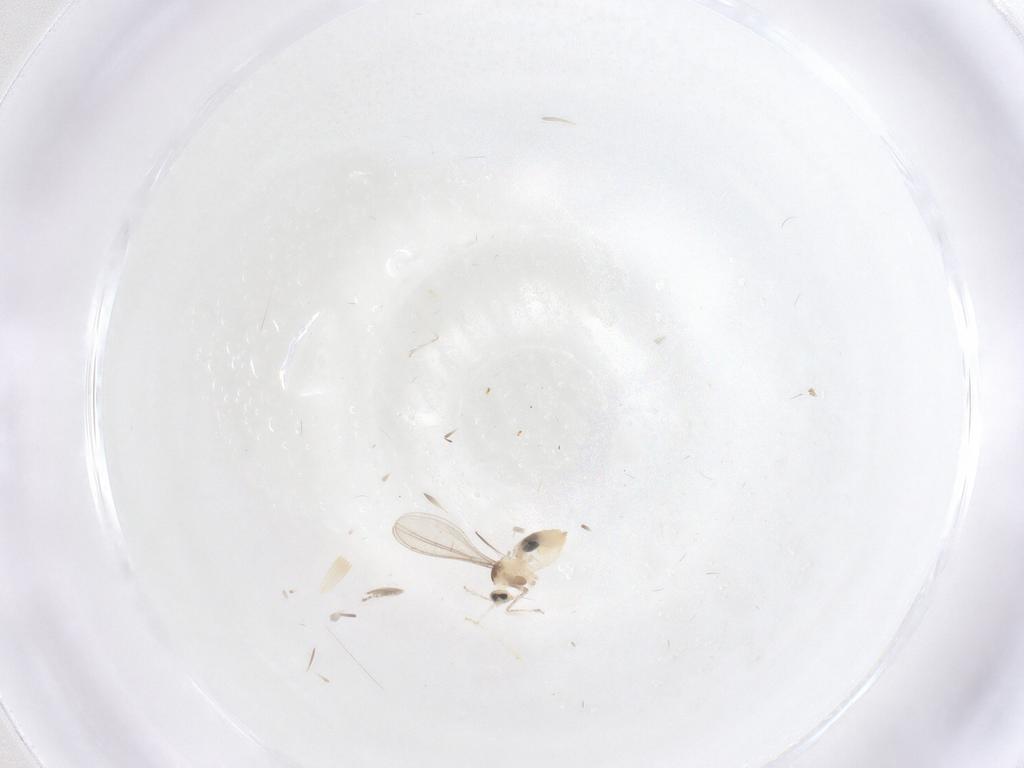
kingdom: Animalia
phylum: Arthropoda
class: Insecta
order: Diptera
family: Cecidomyiidae
